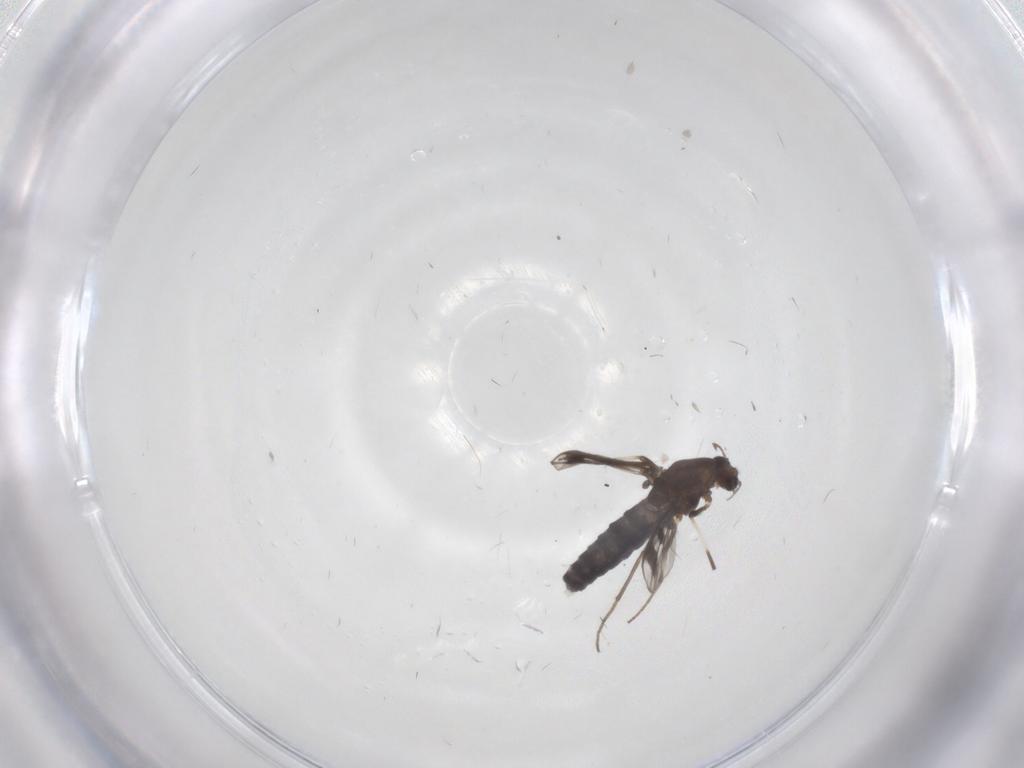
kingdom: Animalia
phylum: Arthropoda
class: Insecta
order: Diptera
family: Chironomidae
